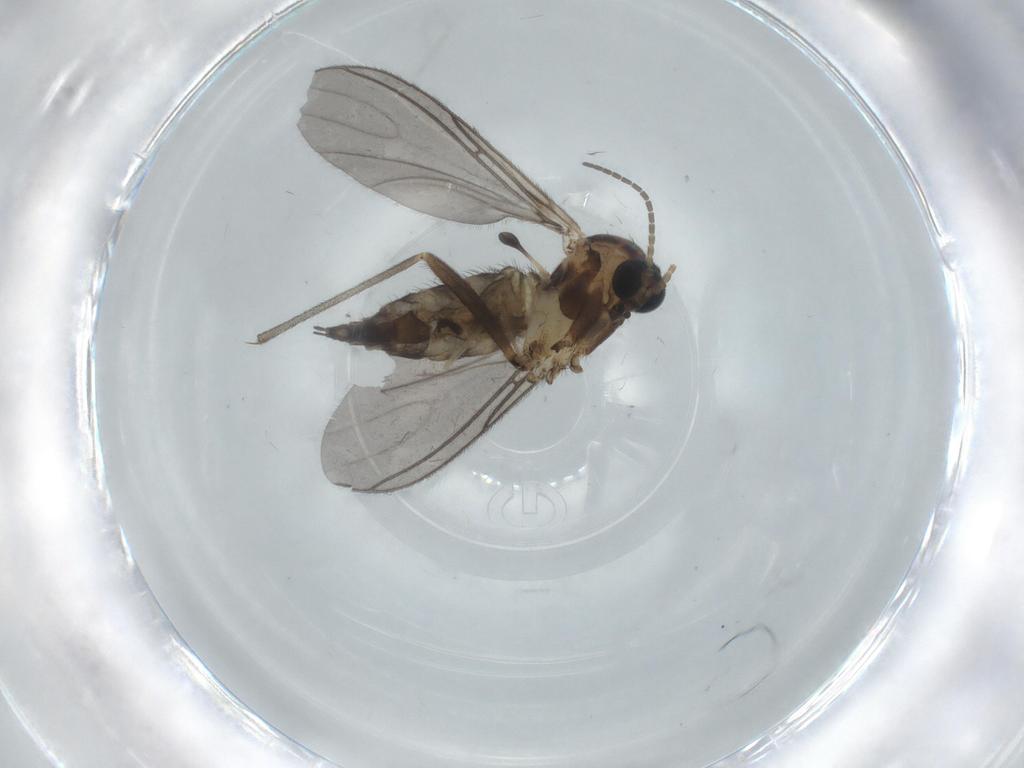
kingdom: Animalia
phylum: Arthropoda
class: Insecta
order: Diptera
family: Sciaridae
